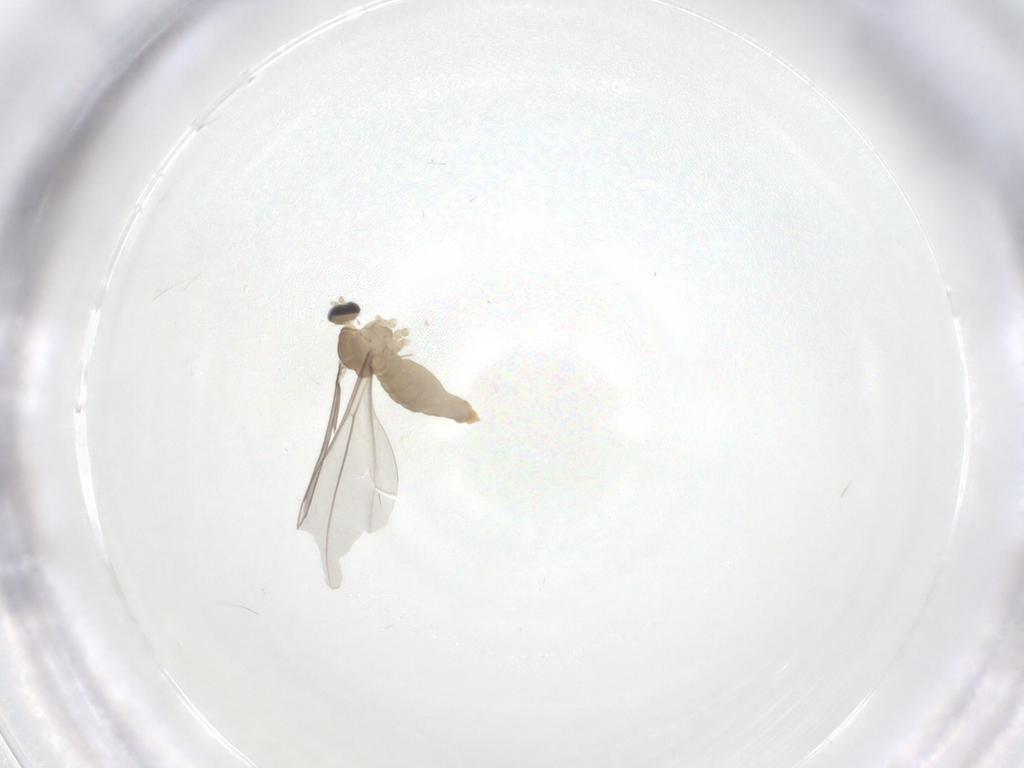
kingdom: Animalia
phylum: Arthropoda
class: Insecta
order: Diptera
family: Cecidomyiidae
